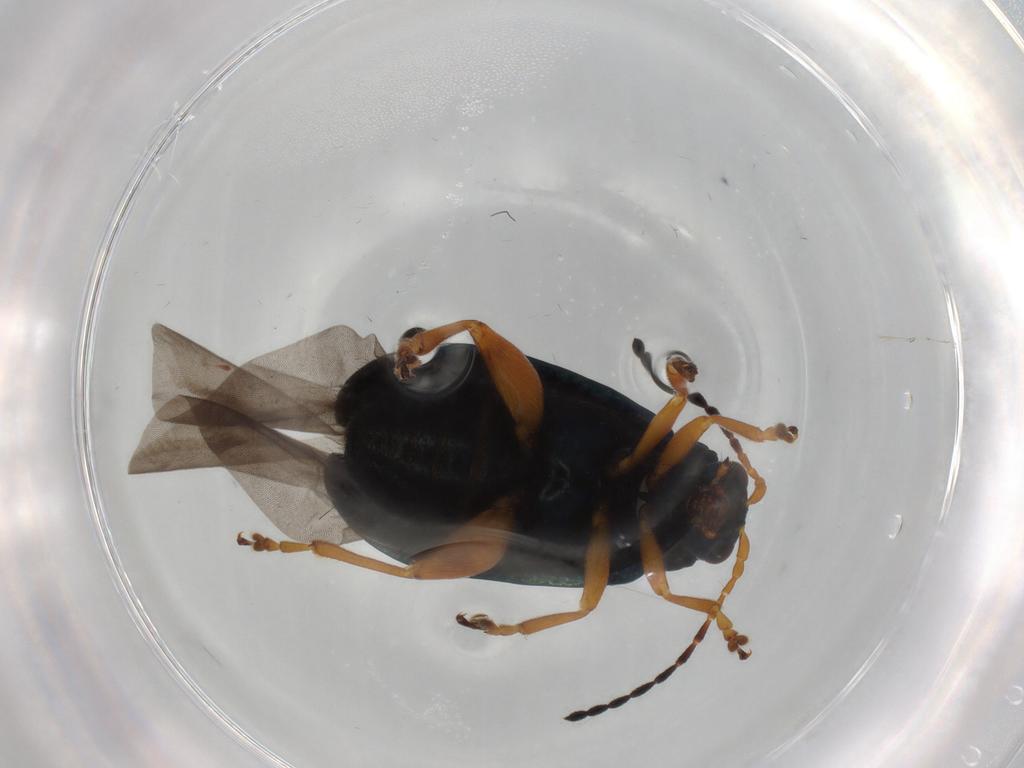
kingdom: Animalia
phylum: Arthropoda
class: Insecta
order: Coleoptera
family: Chrysomelidae
